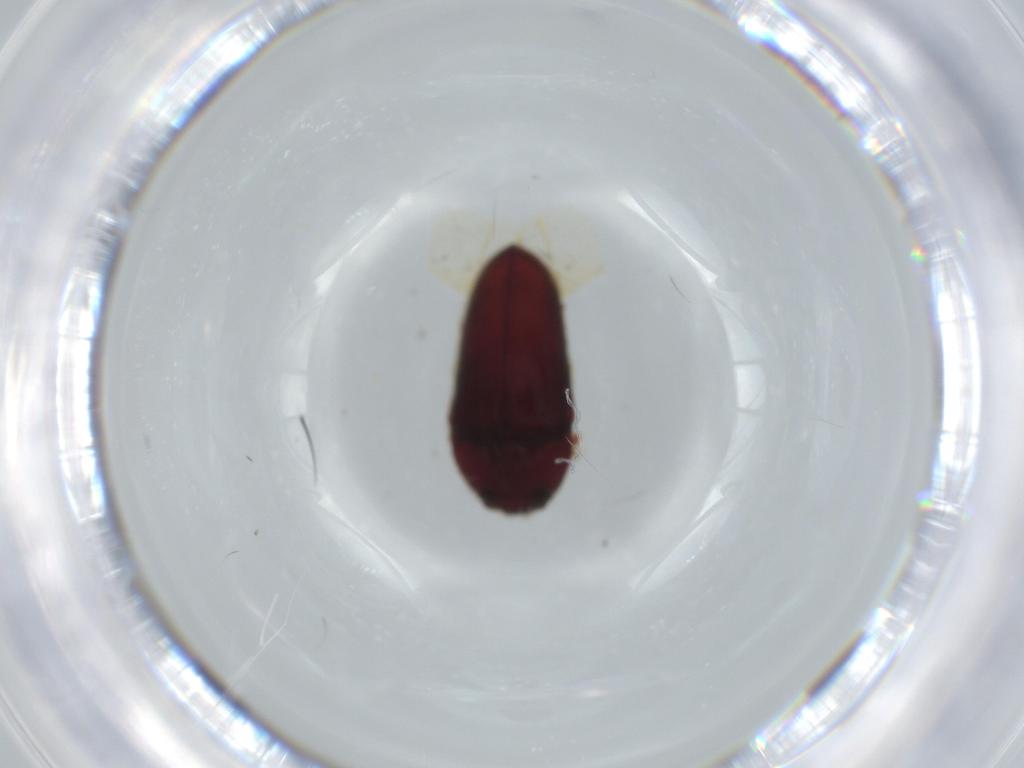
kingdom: Animalia
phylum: Arthropoda
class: Insecta
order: Coleoptera
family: Throscidae
